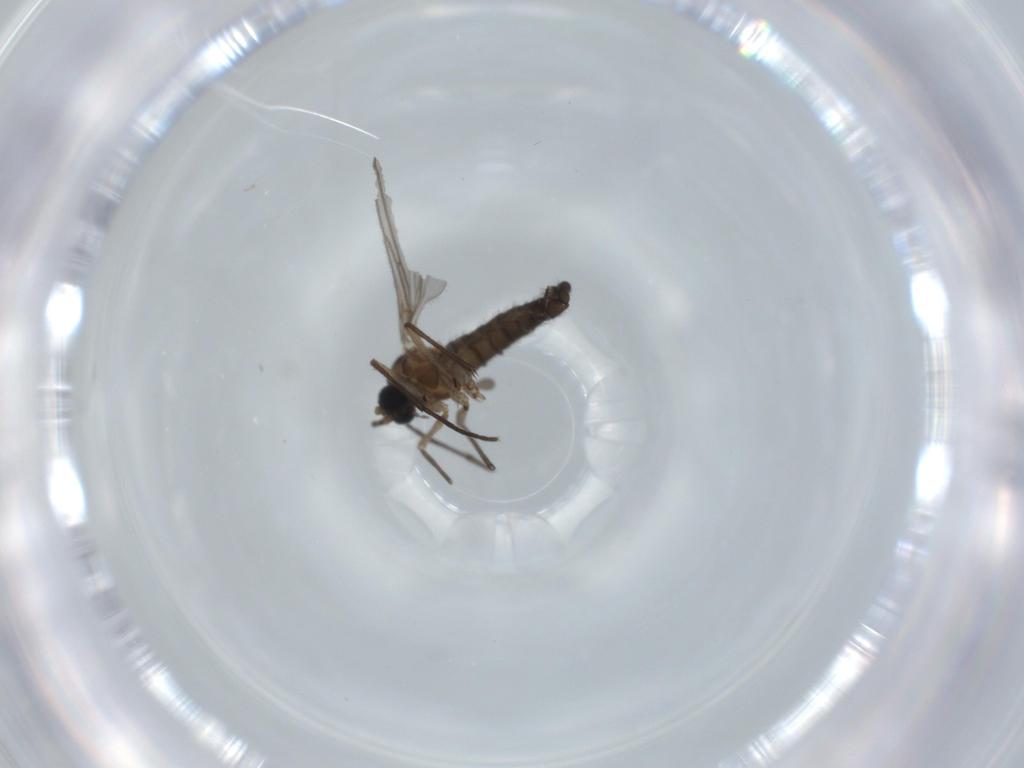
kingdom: Animalia
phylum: Arthropoda
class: Insecta
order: Diptera
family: Sciaridae
